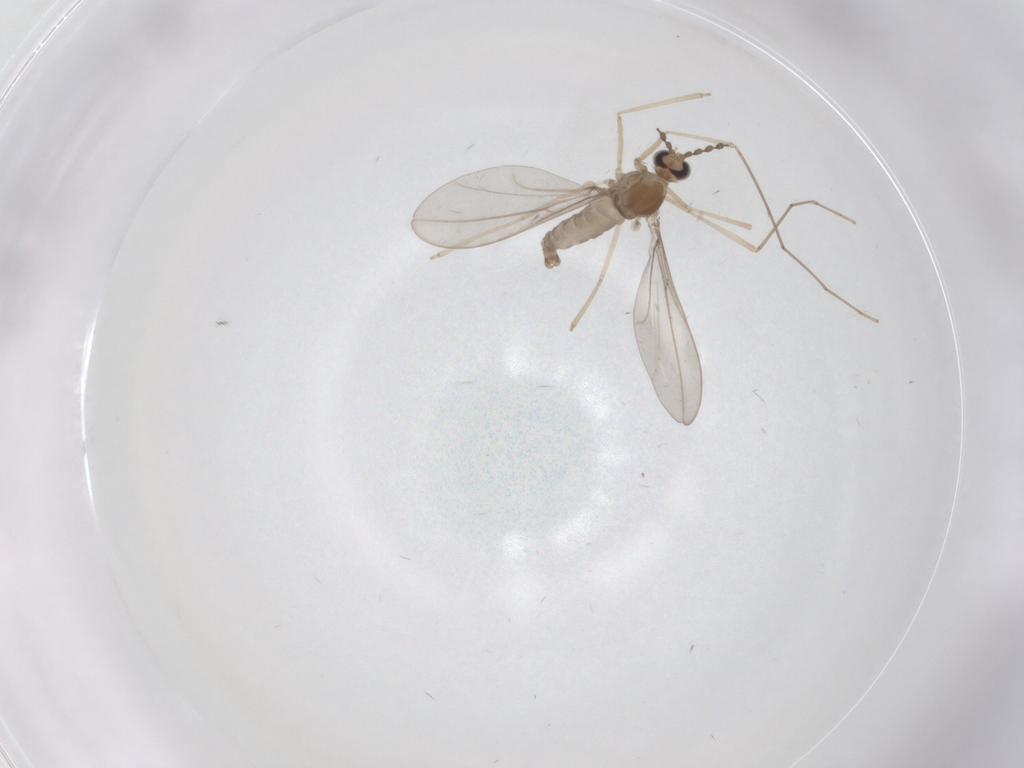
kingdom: Animalia
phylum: Arthropoda
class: Insecta
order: Diptera
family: Cecidomyiidae
